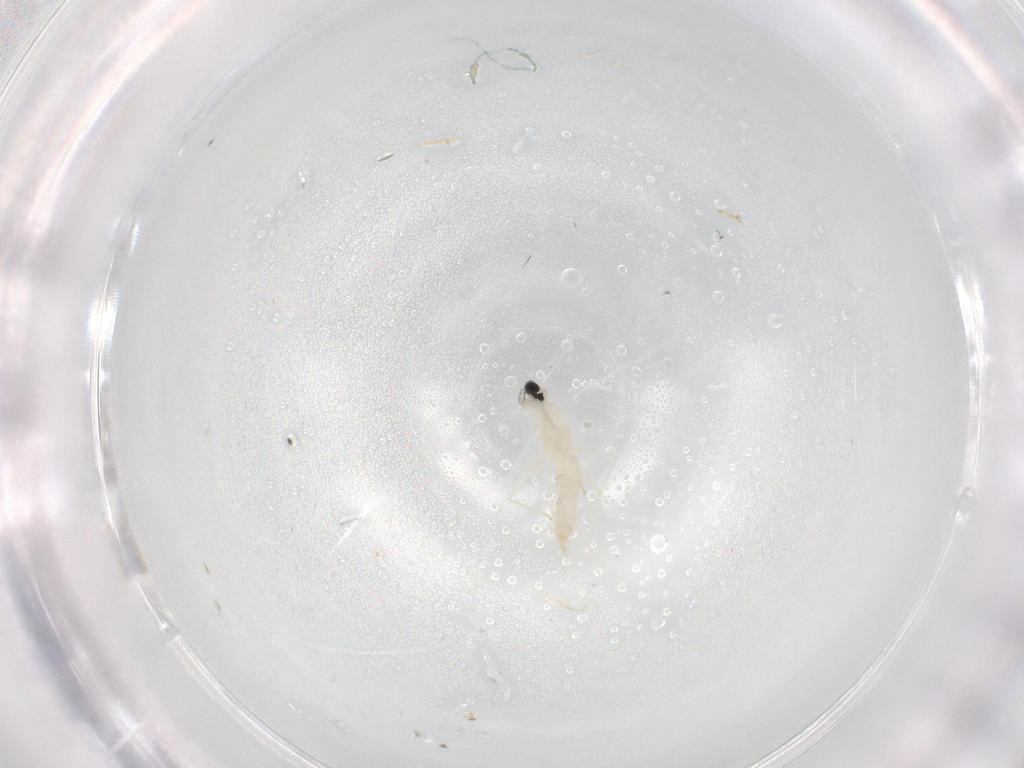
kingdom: Animalia
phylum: Arthropoda
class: Insecta
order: Diptera
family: Cecidomyiidae
